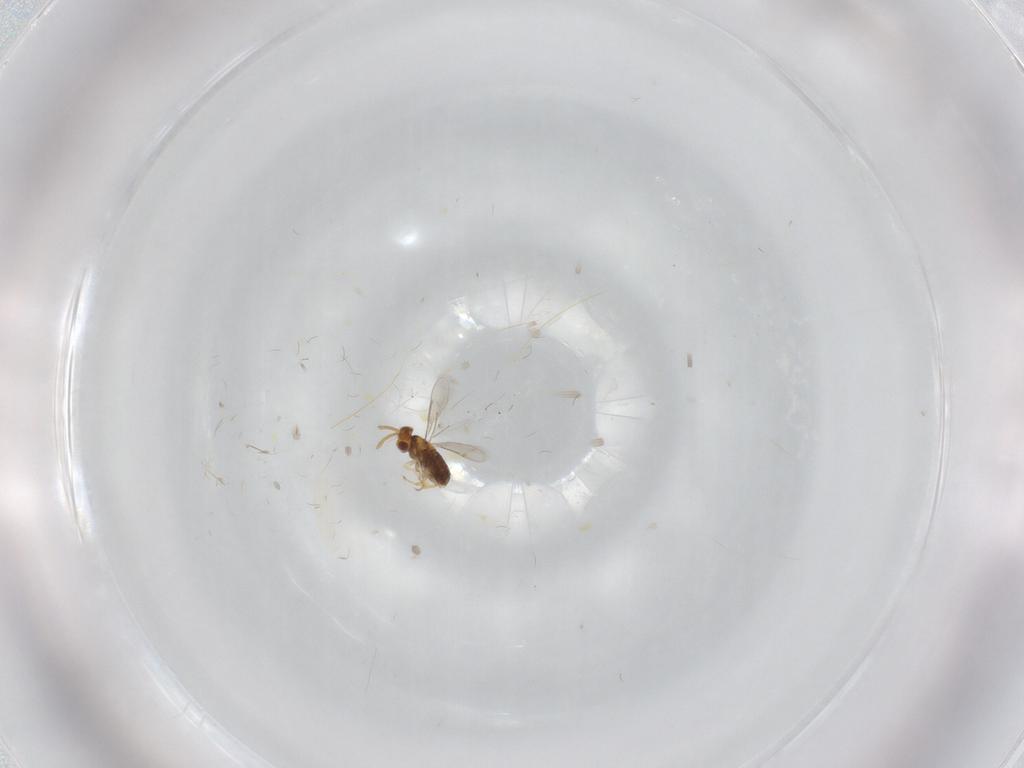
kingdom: Animalia
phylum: Arthropoda
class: Insecta
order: Hymenoptera
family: Aphelinidae
